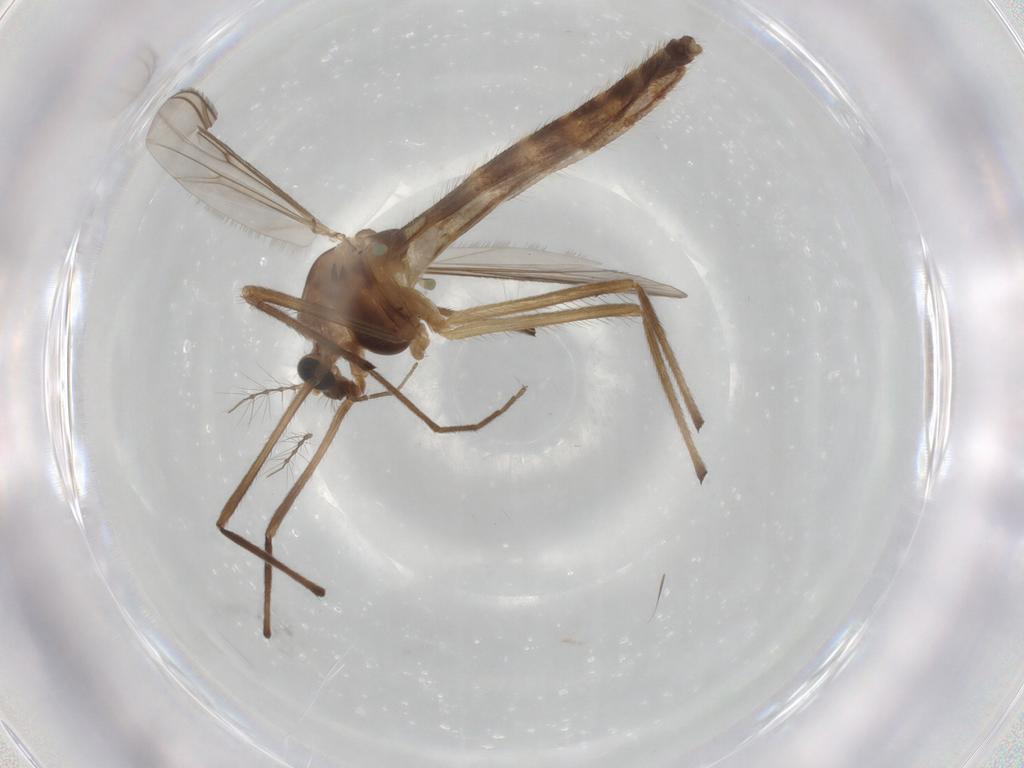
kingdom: Animalia
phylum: Arthropoda
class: Insecta
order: Diptera
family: Chironomidae
